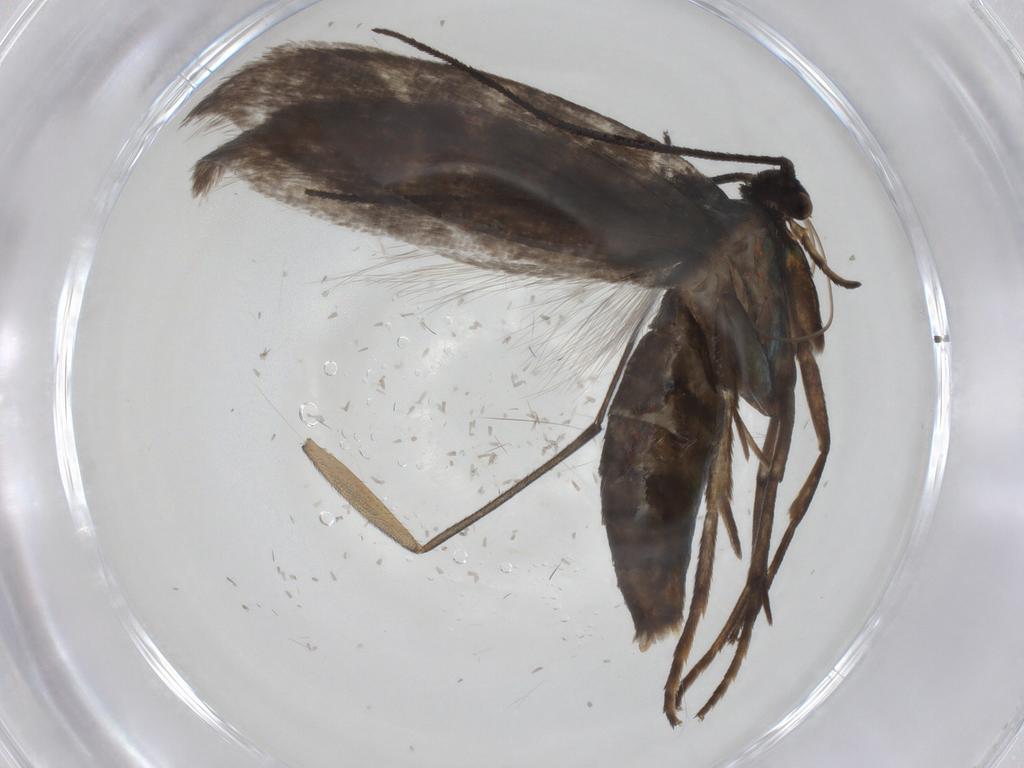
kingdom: Animalia
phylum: Arthropoda
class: Insecta
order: Lepidoptera
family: Argyresthiidae
